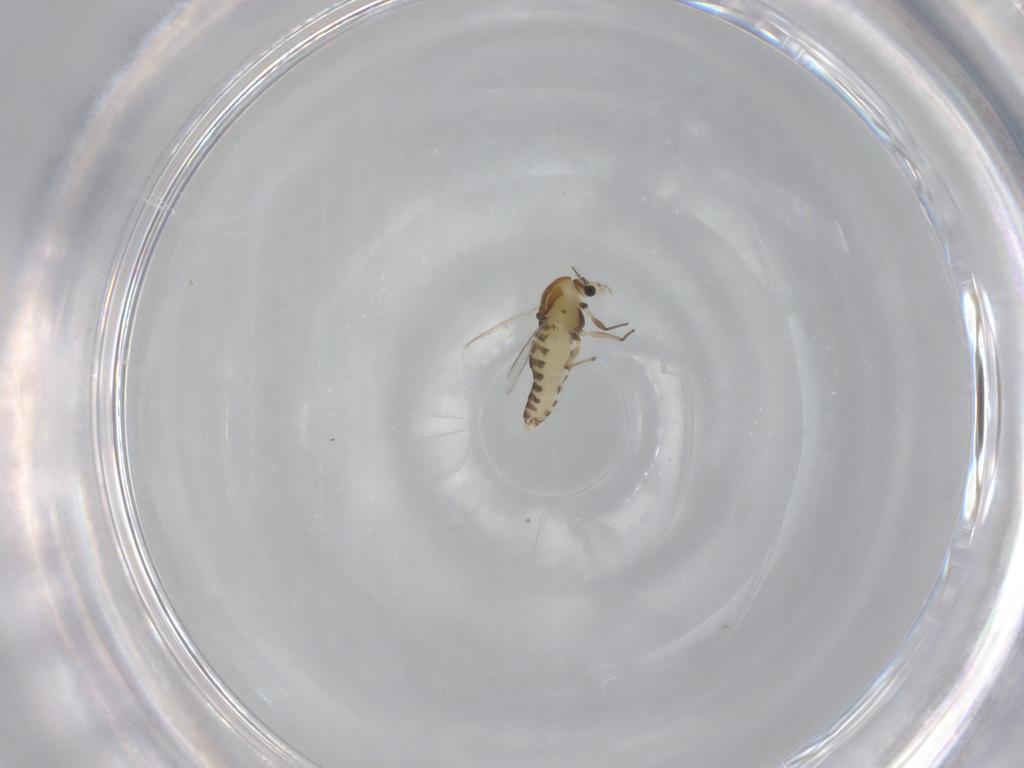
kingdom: Animalia
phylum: Arthropoda
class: Insecta
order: Diptera
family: Chironomidae
